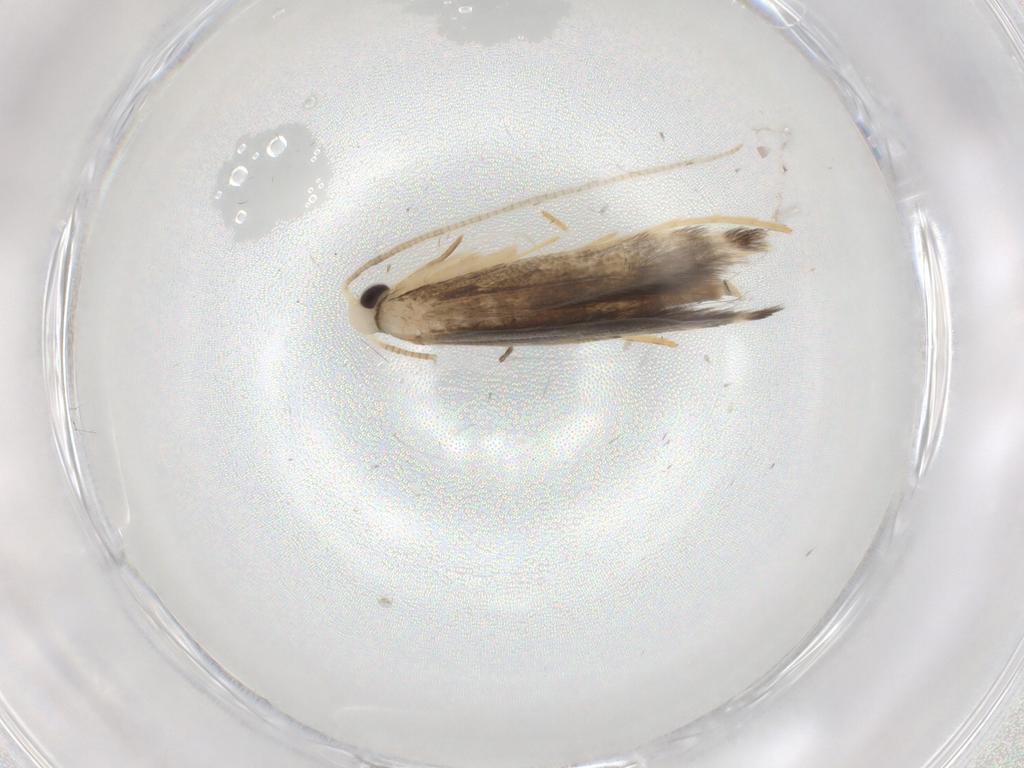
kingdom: Animalia
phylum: Arthropoda
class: Insecta
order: Lepidoptera
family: Gracillariidae
